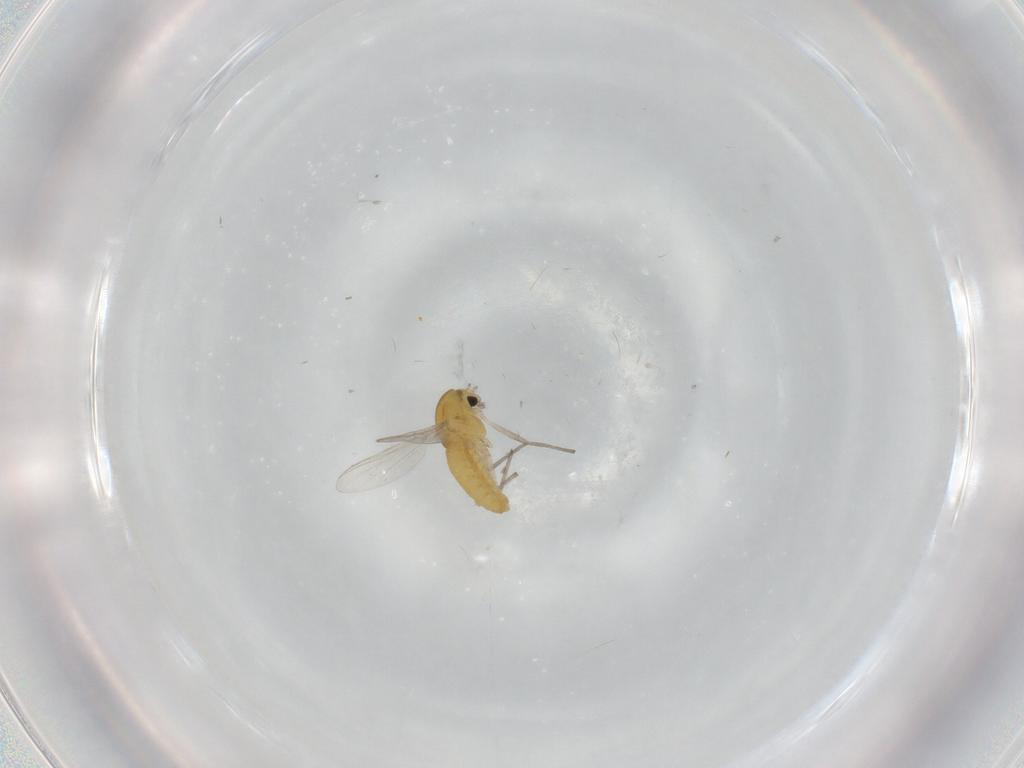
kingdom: Animalia
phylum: Arthropoda
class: Insecta
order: Diptera
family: Chironomidae
